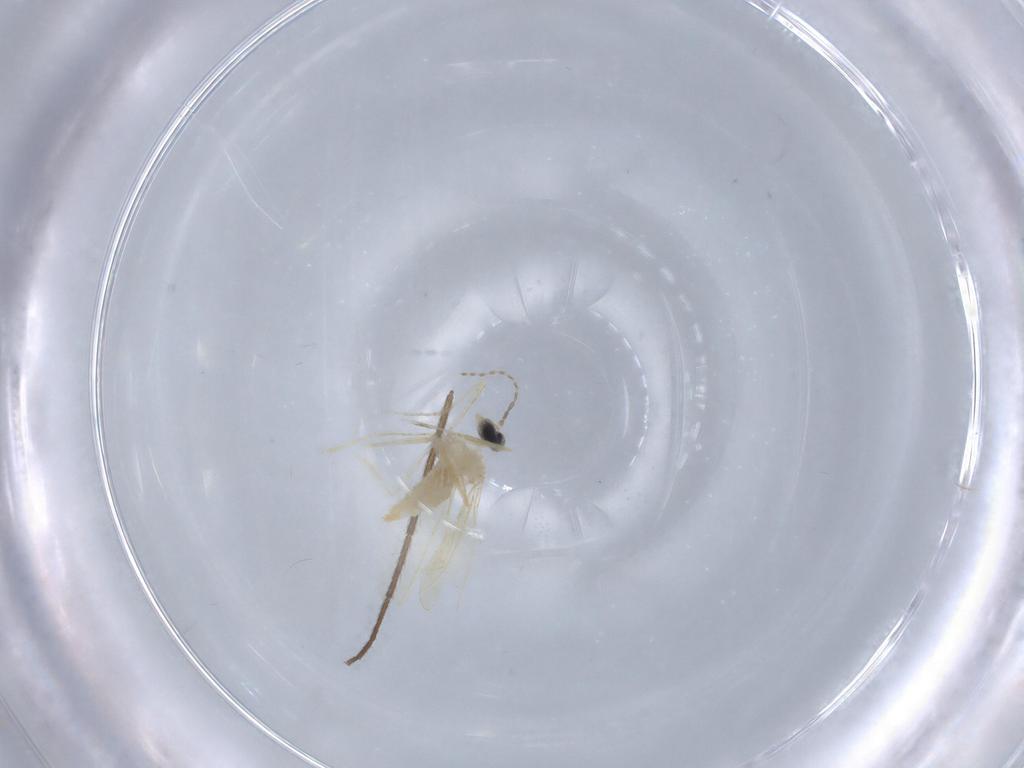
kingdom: Animalia
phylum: Arthropoda
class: Insecta
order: Diptera
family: Cecidomyiidae
